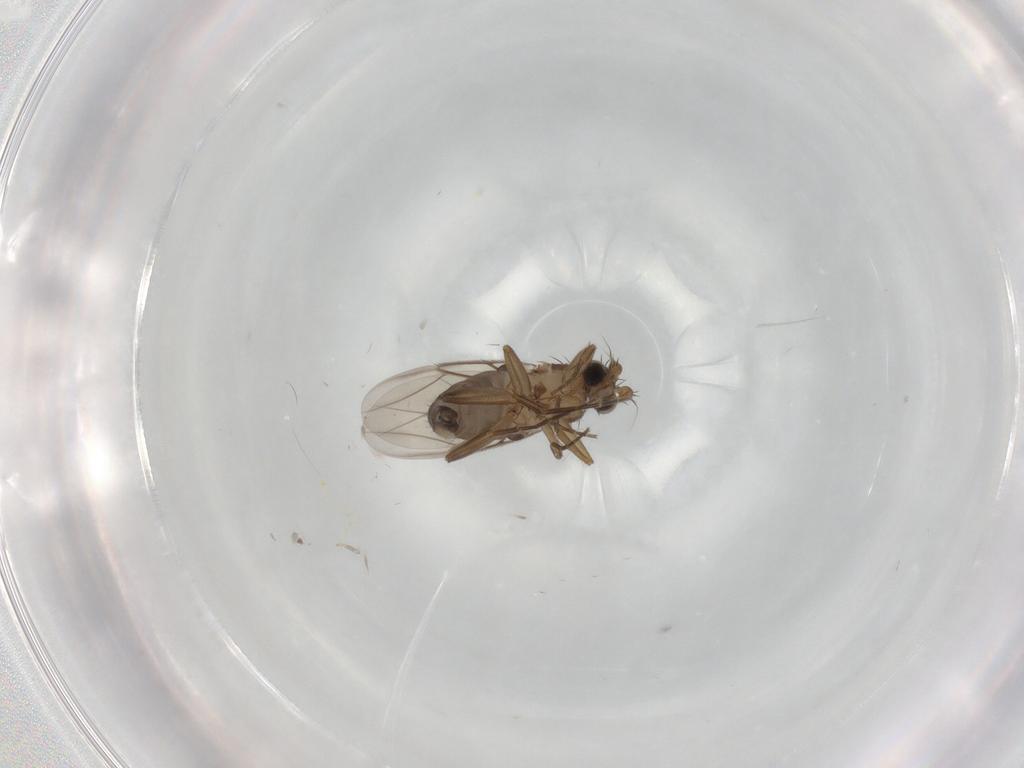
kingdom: Animalia
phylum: Arthropoda
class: Insecta
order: Diptera
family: Phoridae
